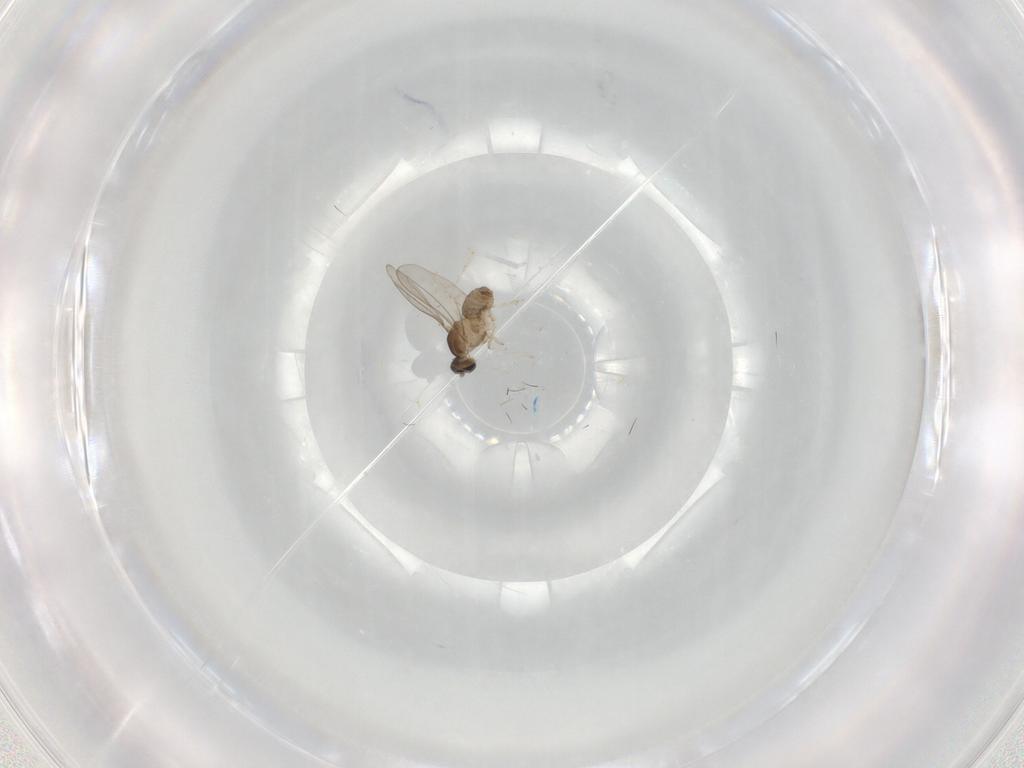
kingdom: Animalia
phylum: Arthropoda
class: Insecta
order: Diptera
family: Cecidomyiidae
